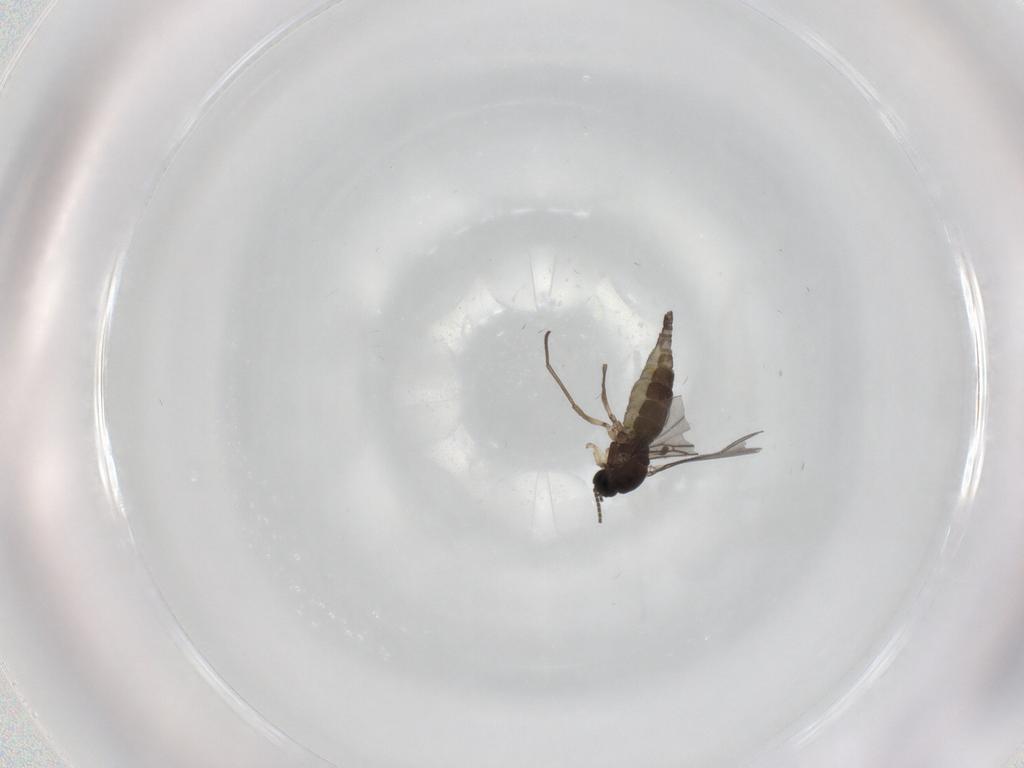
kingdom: Animalia
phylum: Arthropoda
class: Insecta
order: Diptera
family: Sciaridae
